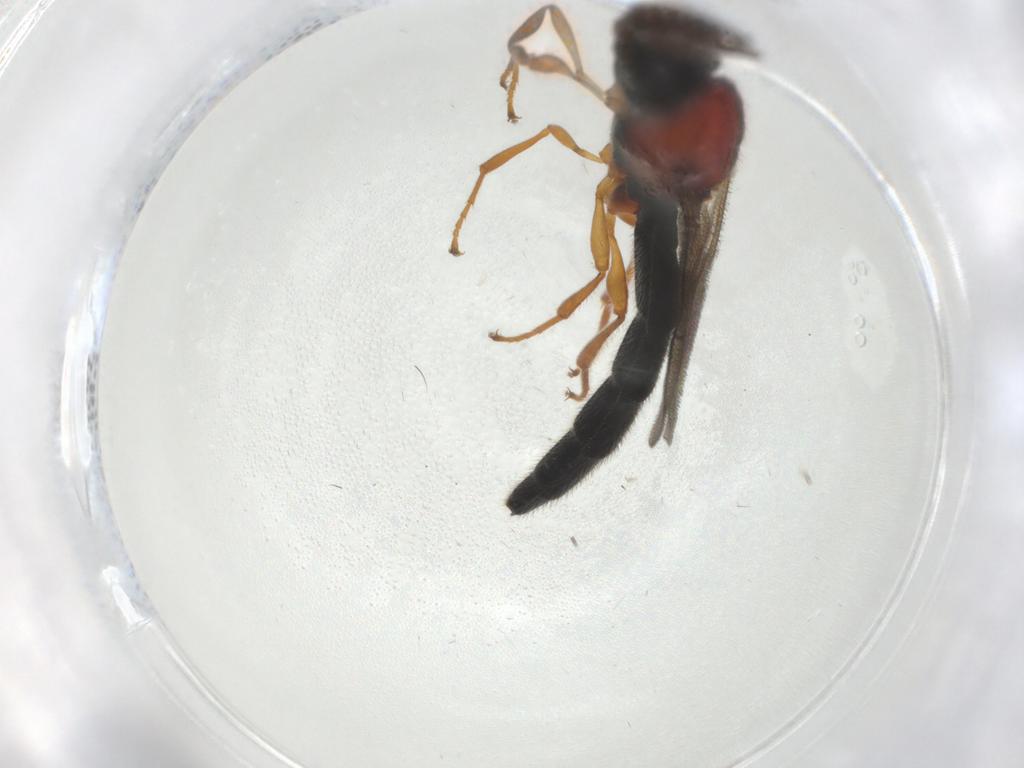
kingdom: Animalia
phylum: Arthropoda
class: Insecta
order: Hymenoptera
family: Scelionidae
